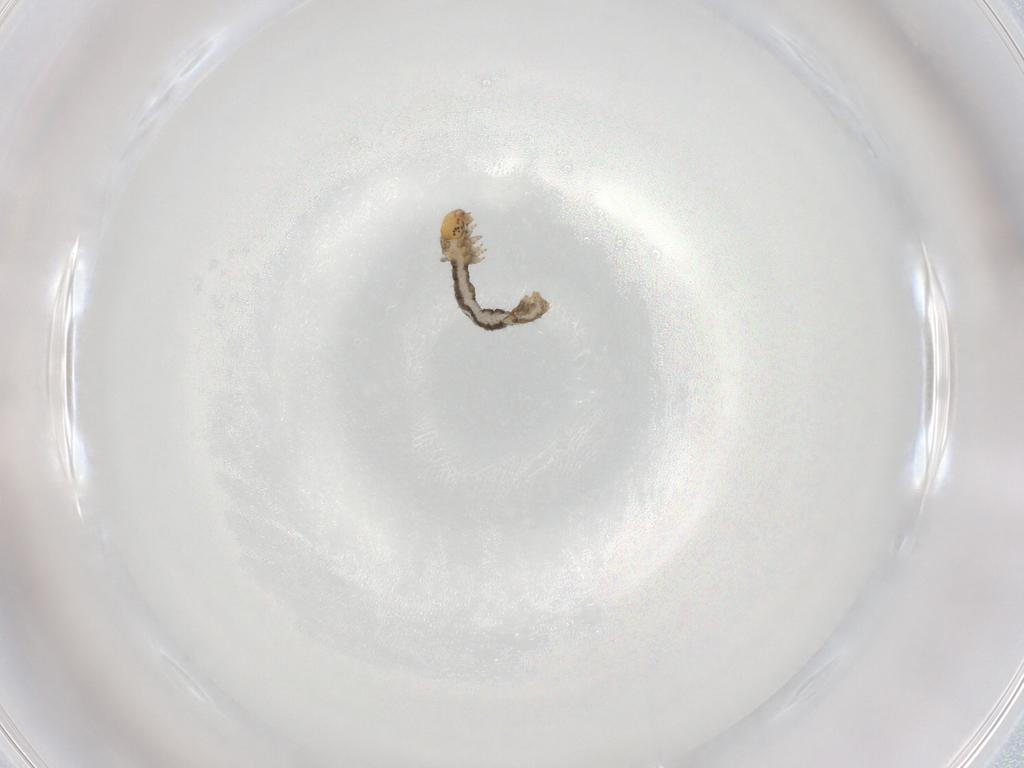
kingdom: Animalia
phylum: Arthropoda
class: Insecta
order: Lepidoptera
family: Geometridae
